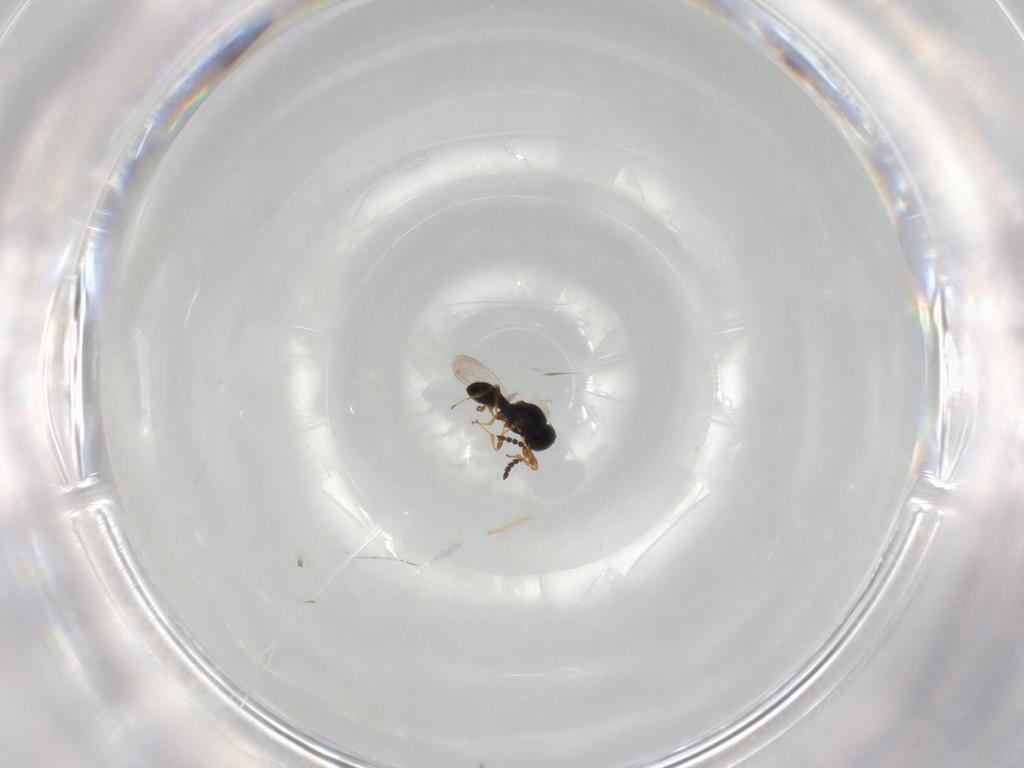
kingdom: Animalia
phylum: Arthropoda
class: Insecta
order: Hymenoptera
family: Platygastridae
